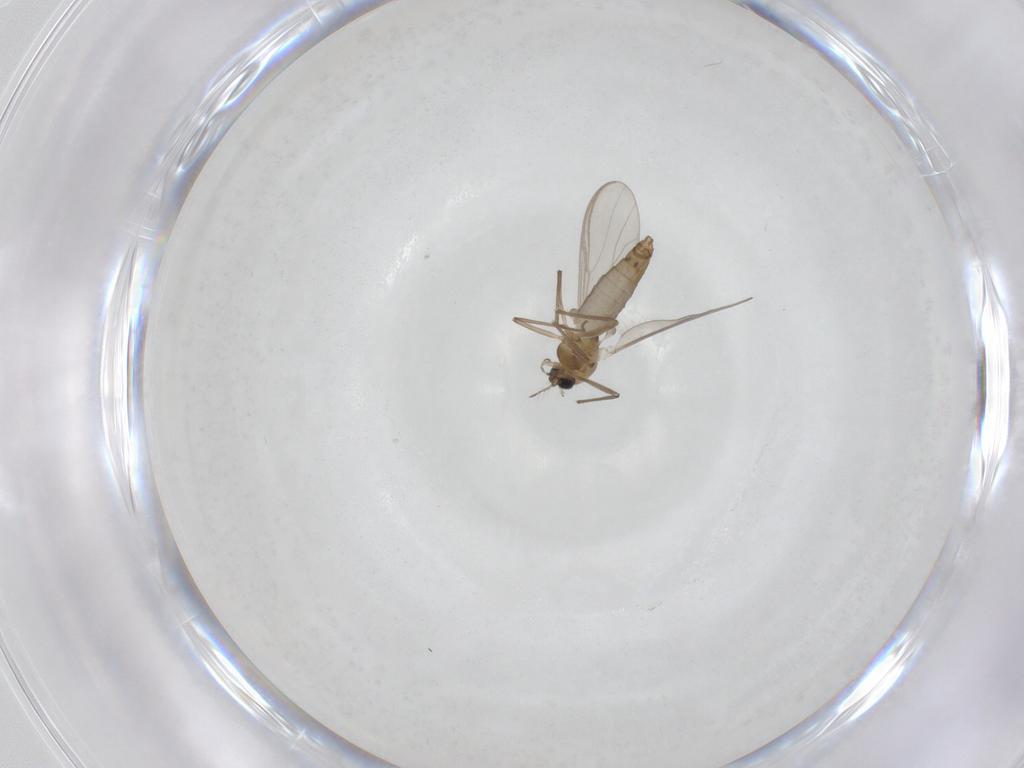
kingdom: Animalia
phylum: Arthropoda
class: Insecta
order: Diptera
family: Chironomidae
